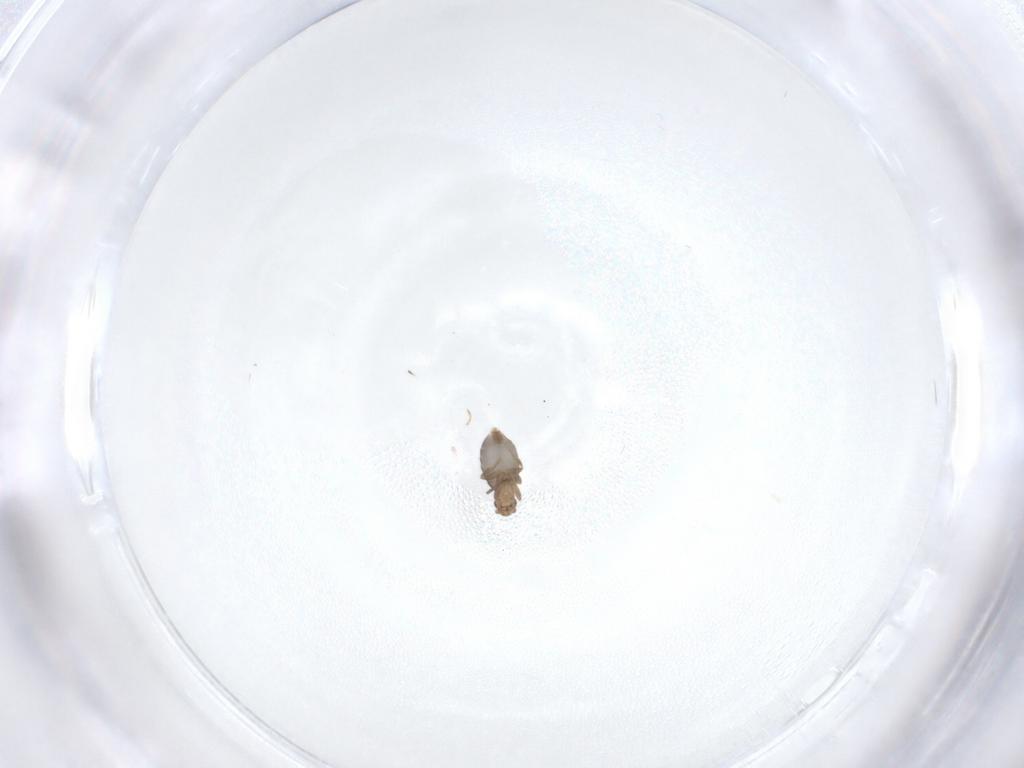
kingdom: Animalia
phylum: Arthropoda
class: Insecta
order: Diptera
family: Phoridae
